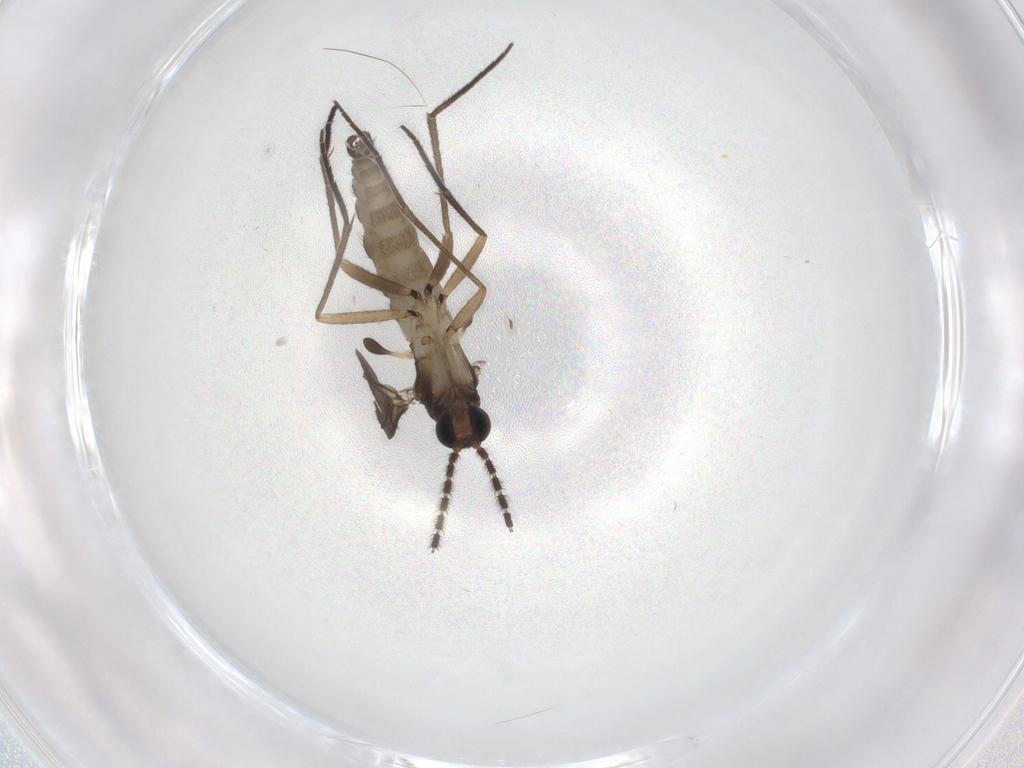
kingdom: Animalia
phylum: Arthropoda
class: Insecta
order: Diptera
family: Sciaridae
